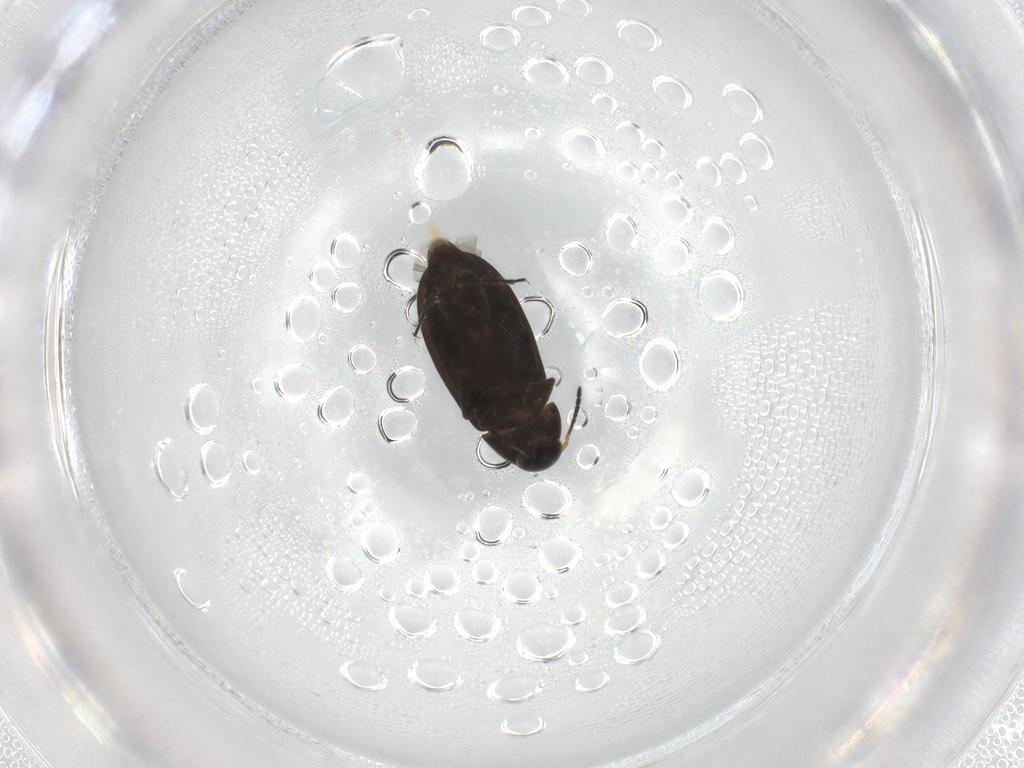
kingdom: Animalia
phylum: Arthropoda
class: Insecta
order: Coleoptera
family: Scraptiidae
